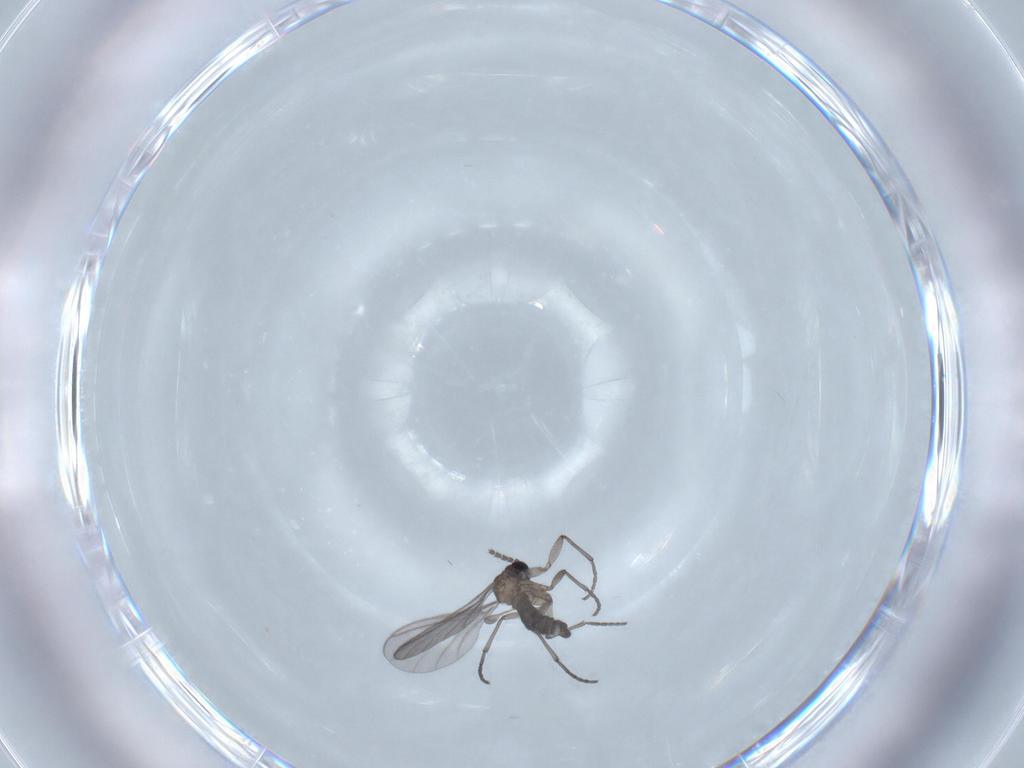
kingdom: Animalia
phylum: Arthropoda
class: Insecta
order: Diptera
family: Sciaridae
